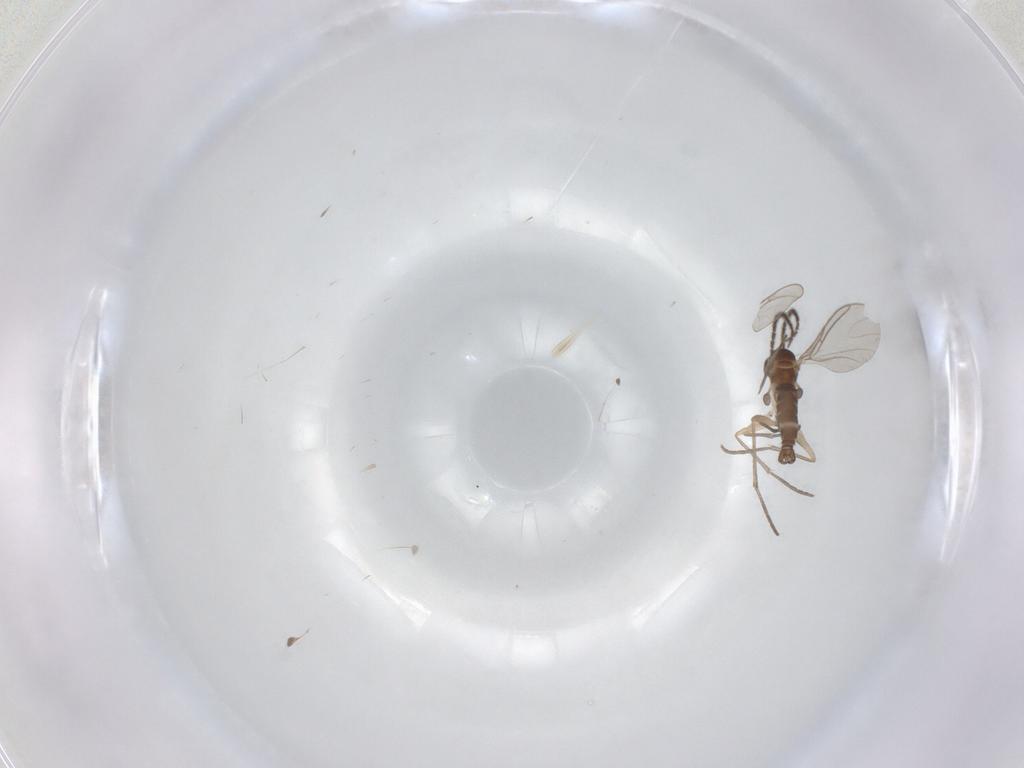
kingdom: Animalia
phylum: Arthropoda
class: Insecta
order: Diptera
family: Sciaridae
